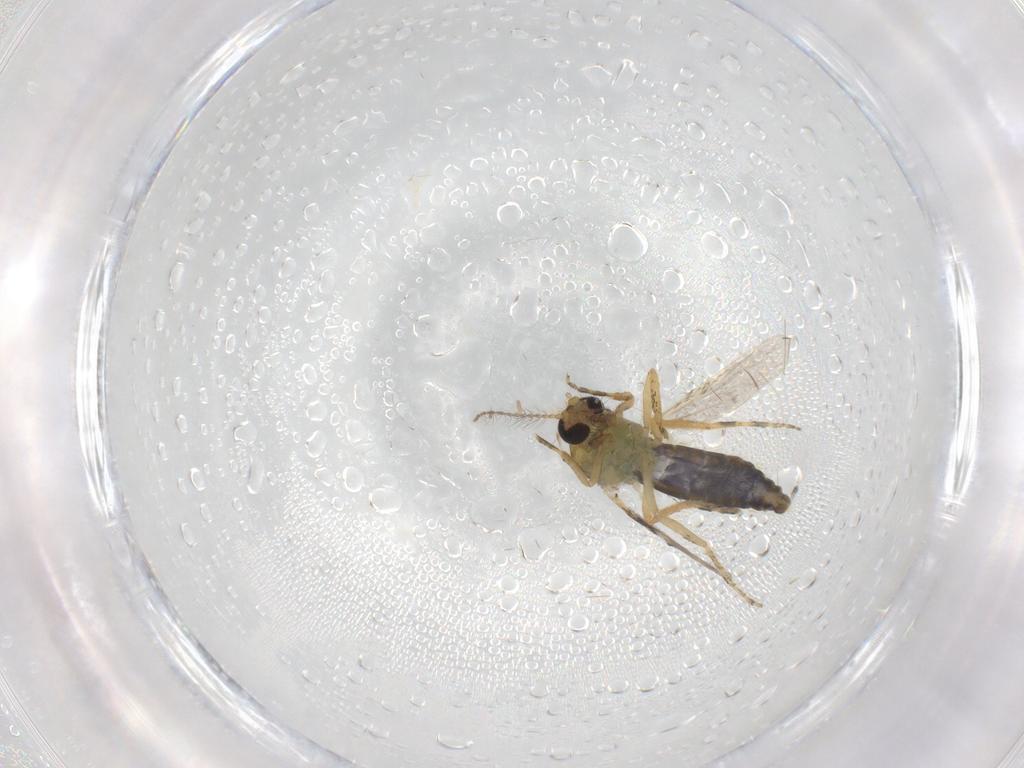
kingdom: Animalia
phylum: Arthropoda
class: Insecta
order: Diptera
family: Ceratopogonidae
